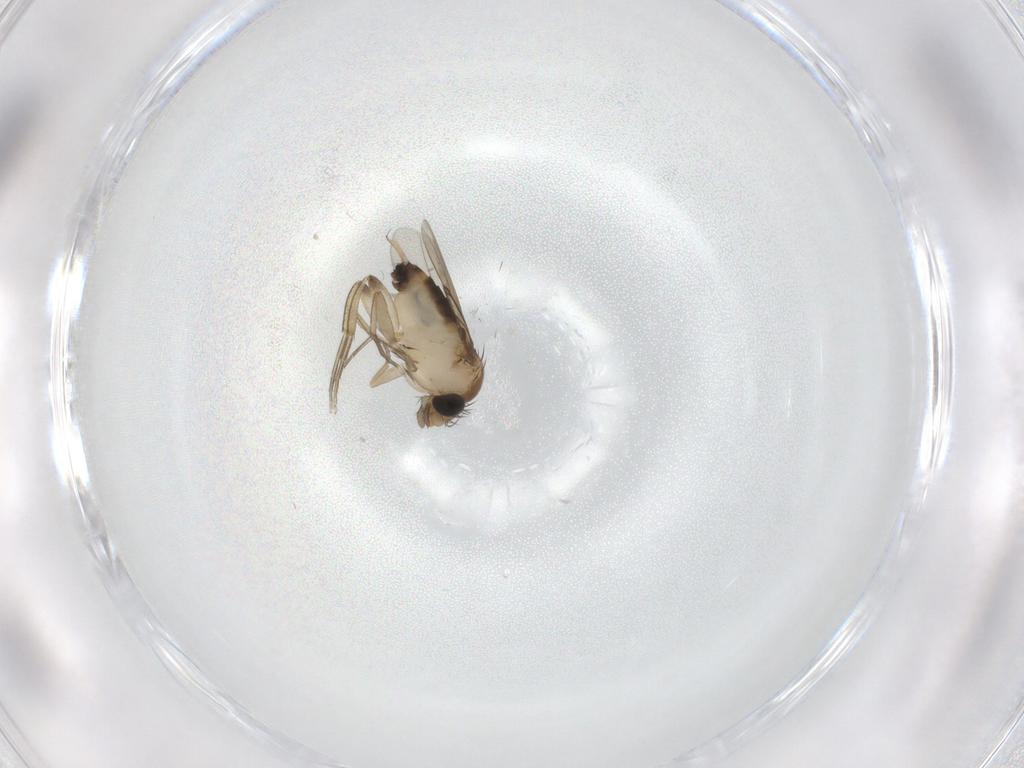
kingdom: Animalia
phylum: Arthropoda
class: Insecta
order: Diptera
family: Phoridae
